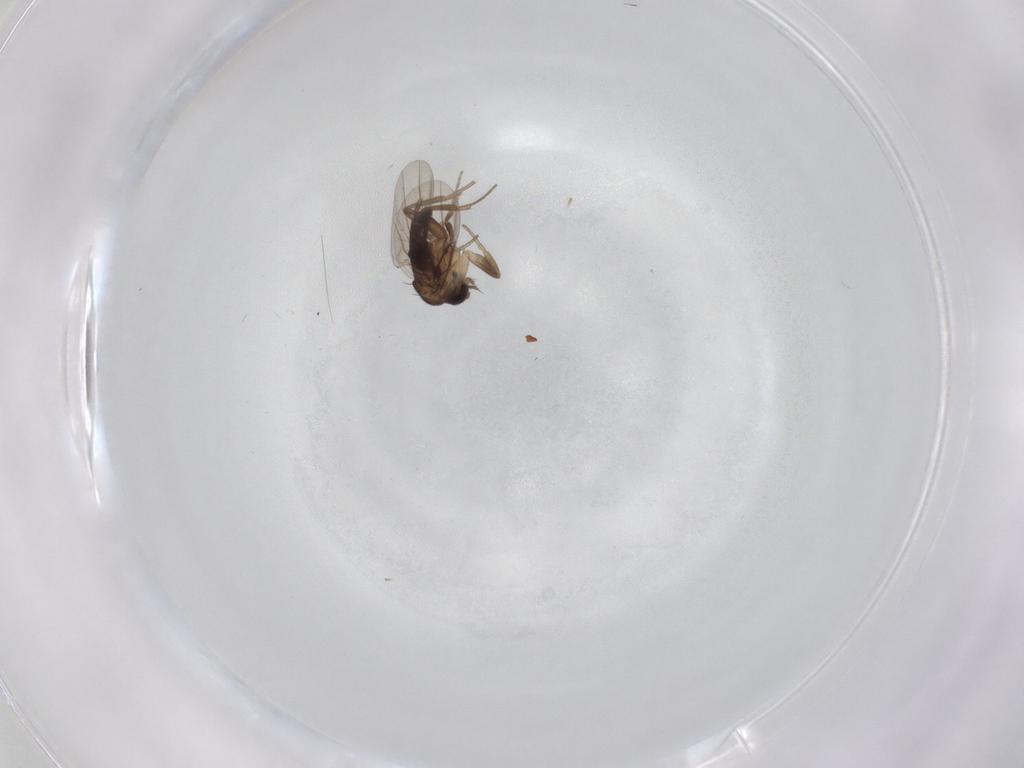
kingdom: Animalia
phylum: Arthropoda
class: Insecta
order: Diptera
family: Phoridae
